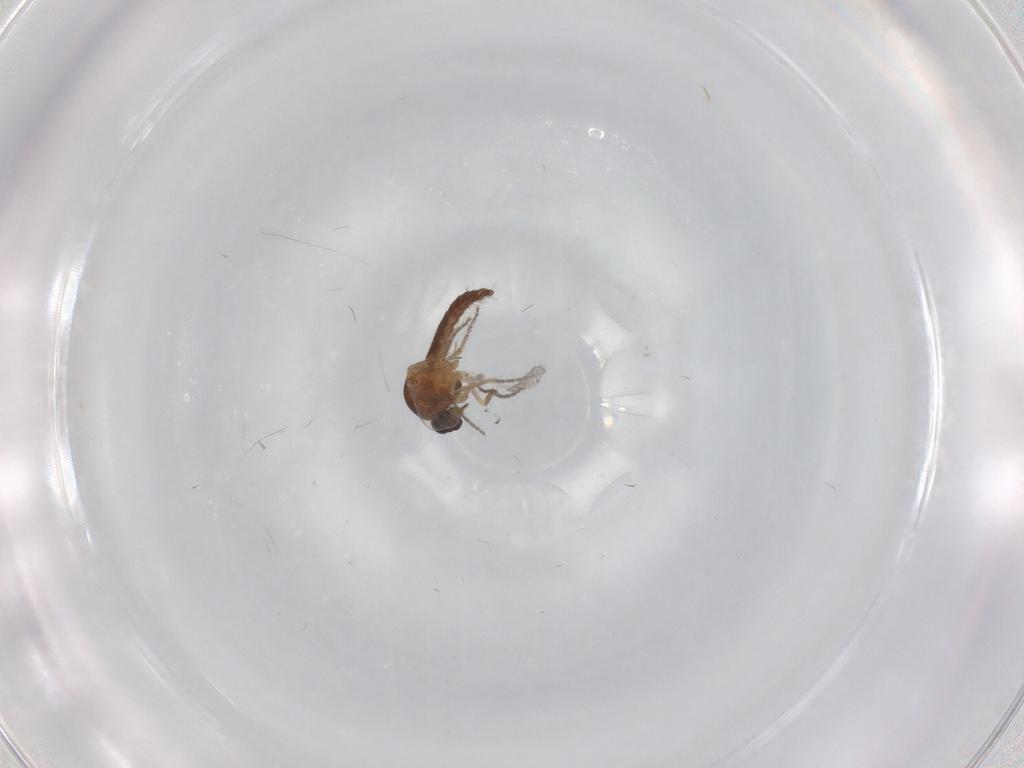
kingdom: Animalia
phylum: Arthropoda
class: Insecta
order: Diptera
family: Ceratopogonidae
